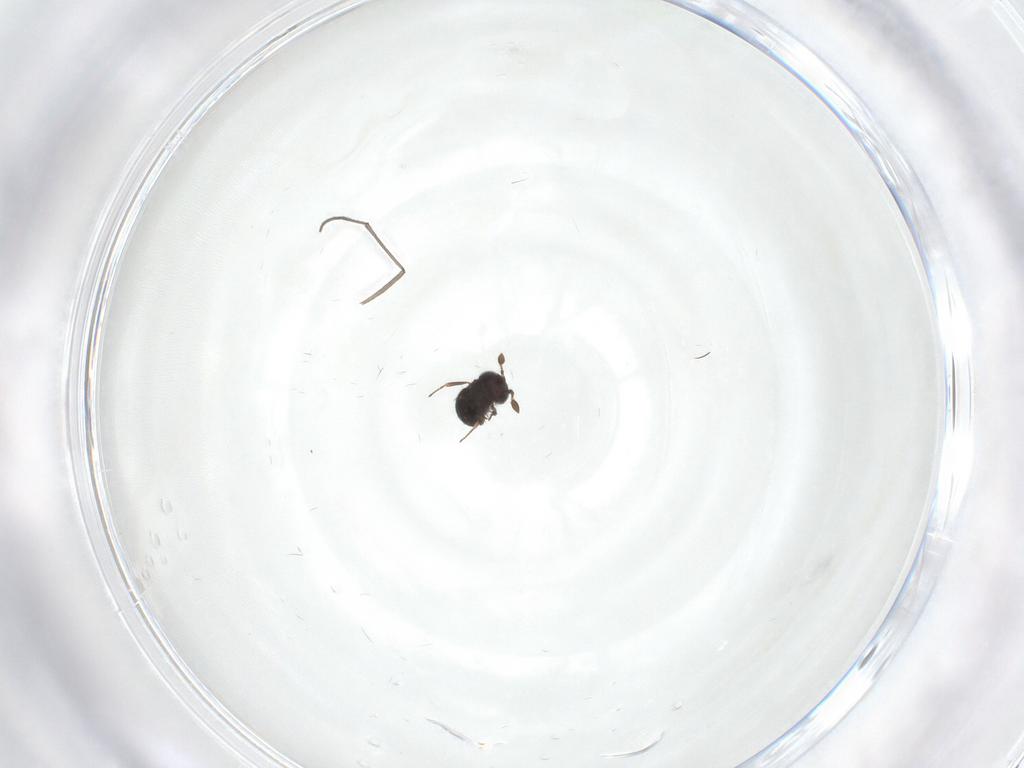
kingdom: Animalia
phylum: Arthropoda
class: Insecta
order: Hymenoptera
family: Scelionidae
